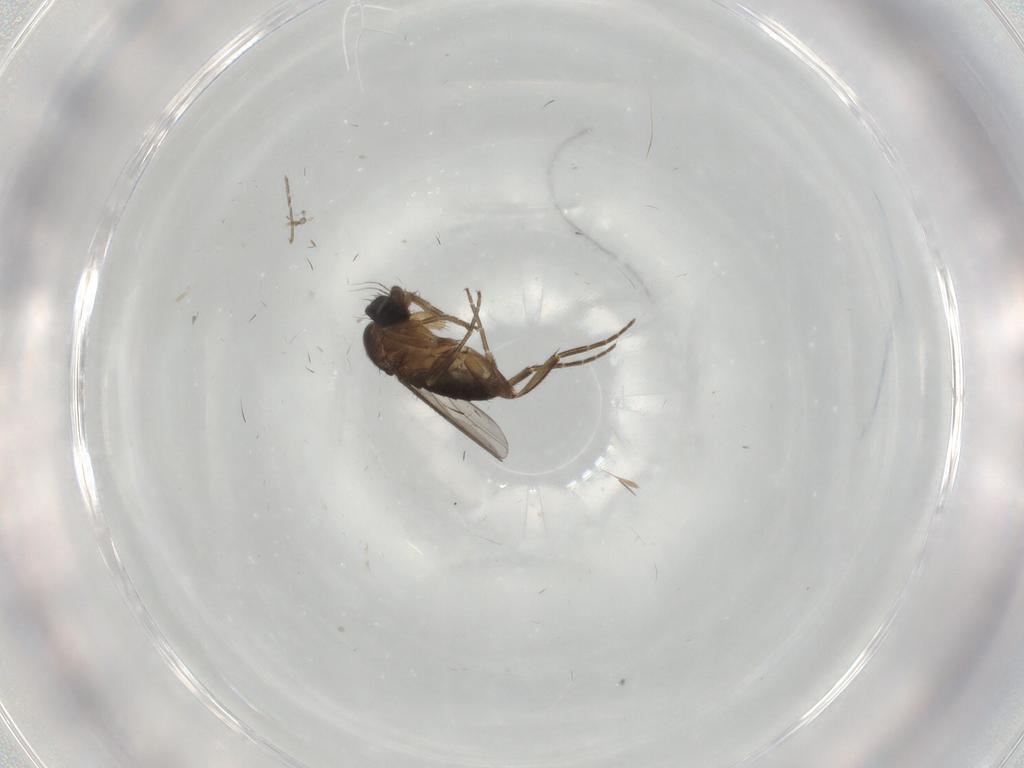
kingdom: Animalia
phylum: Arthropoda
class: Insecta
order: Diptera
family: Phoridae
